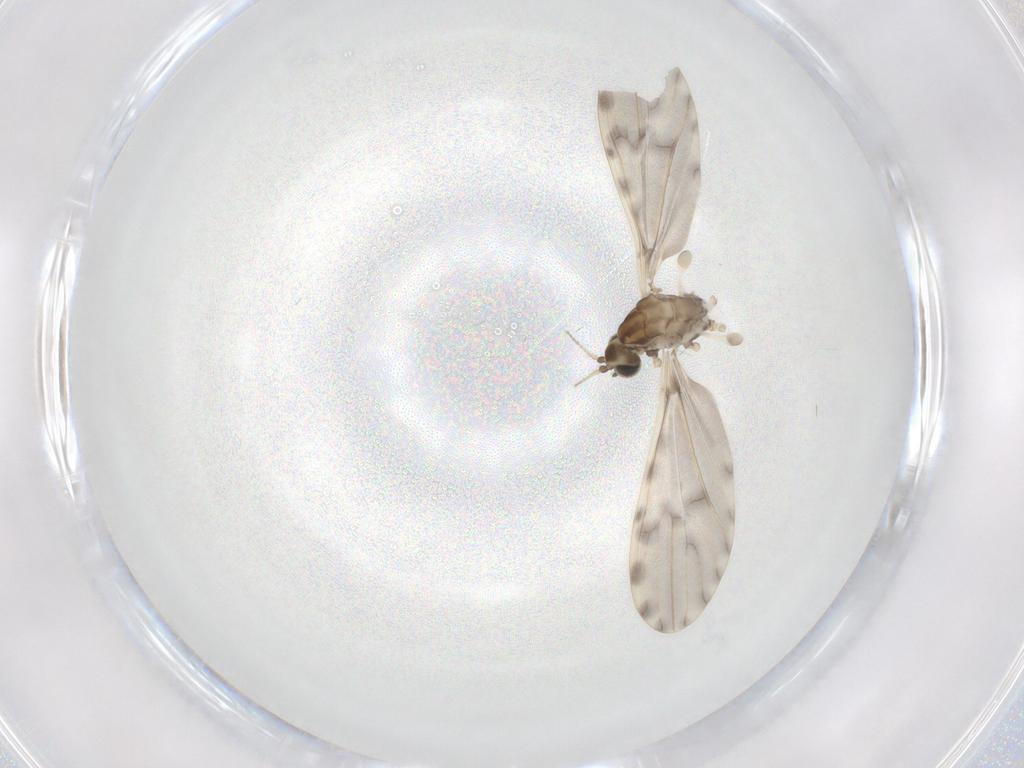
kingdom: Animalia
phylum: Arthropoda
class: Insecta
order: Diptera
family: Limoniidae
